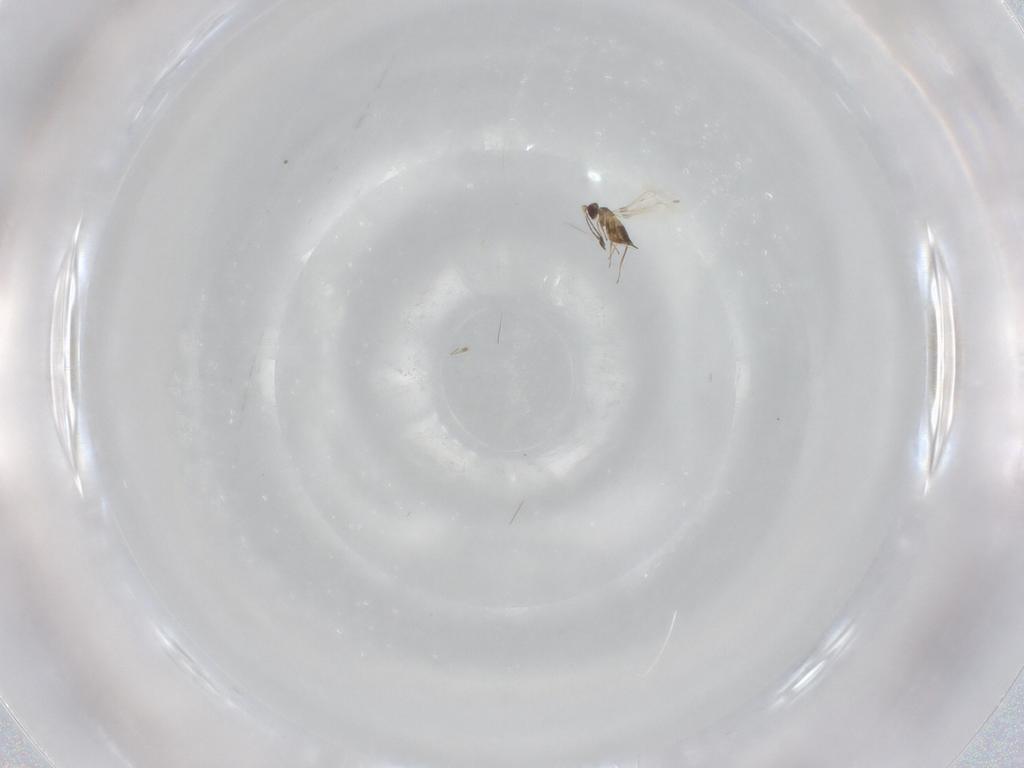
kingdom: Animalia
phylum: Arthropoda
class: Insecta
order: Hymenoptera
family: Mymaridae
